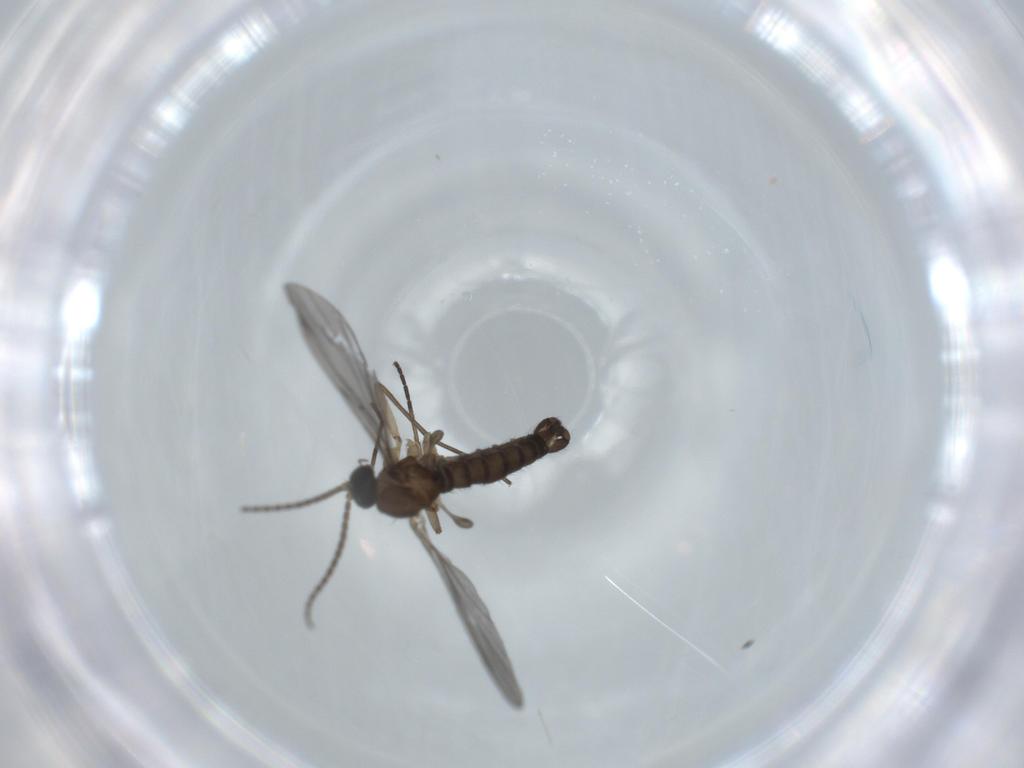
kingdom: Animalia
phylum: Arthropoda
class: Insecta
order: Diptera
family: Sciaridae
